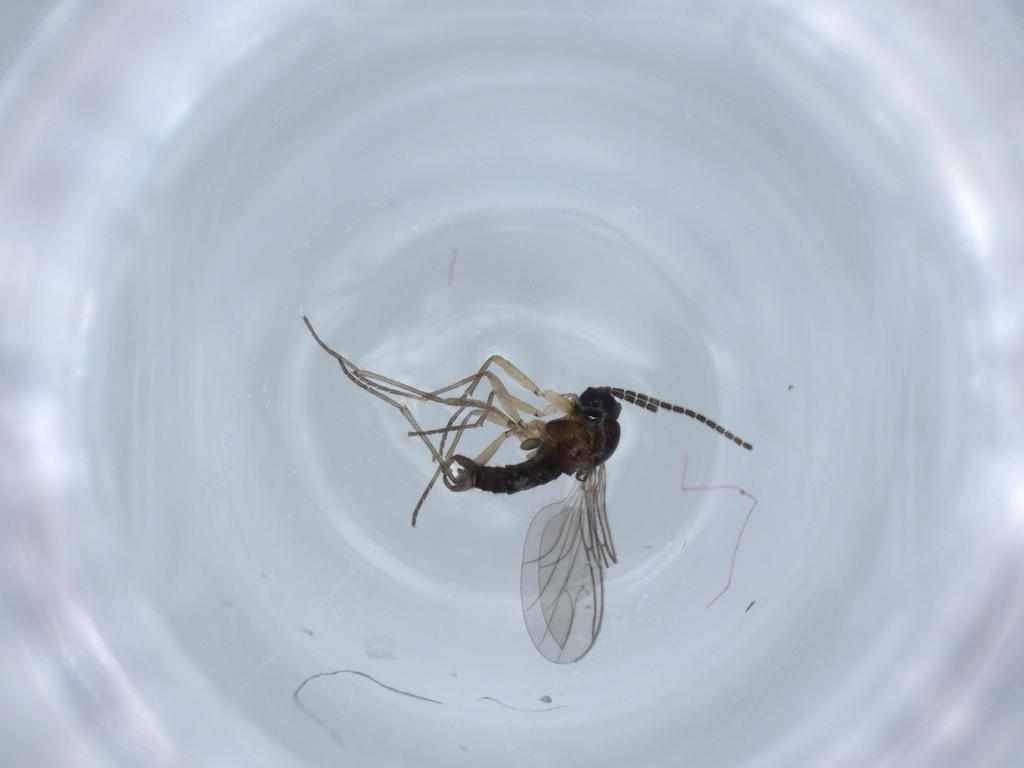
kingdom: Animalia
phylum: Arthropoda
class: Insecta
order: Diptera
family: Sciaridae
